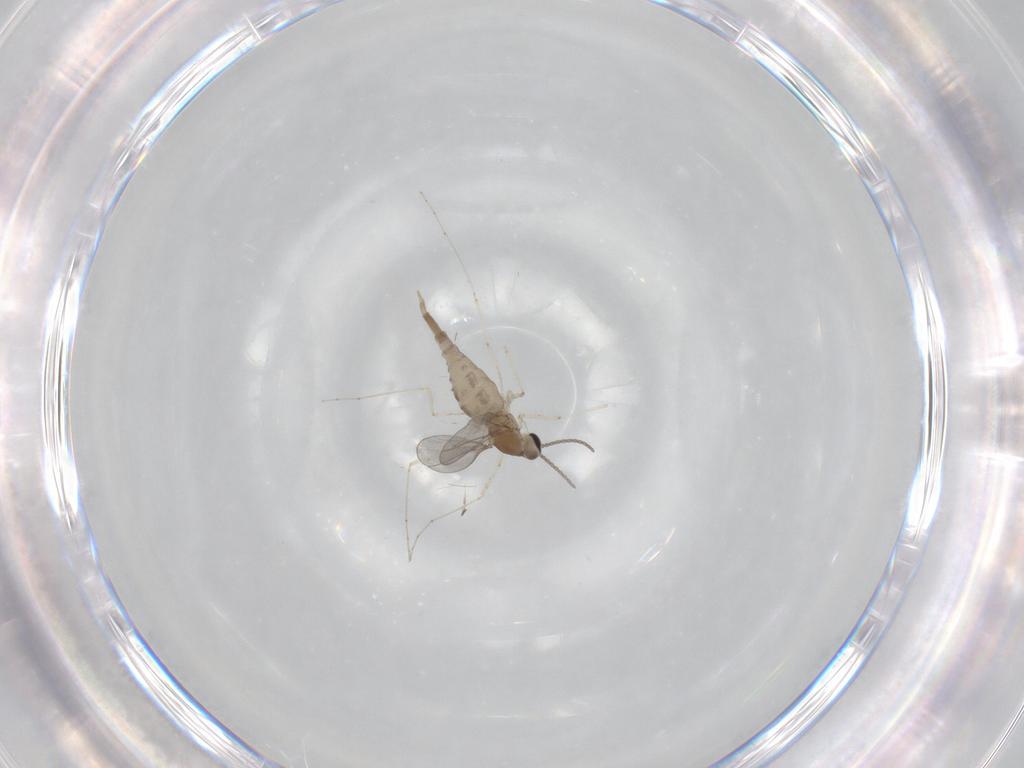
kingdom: Animalia
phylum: Arthropoda
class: Insecta
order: Diptera
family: Cecidomyiidae
